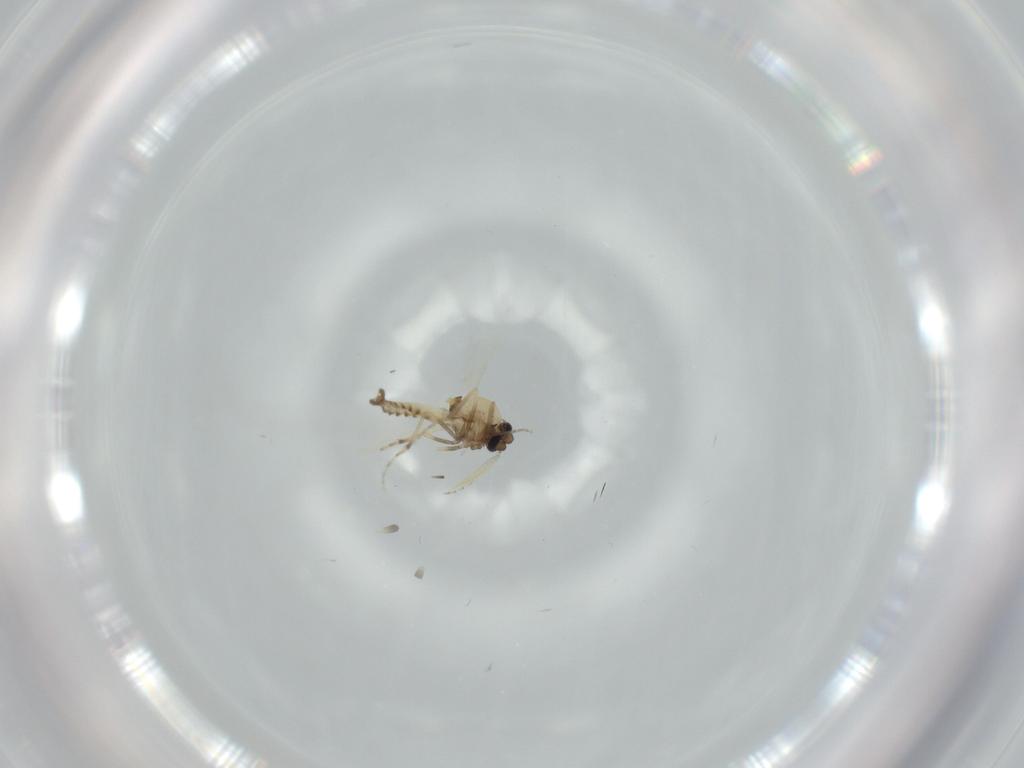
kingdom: Animalia
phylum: Arthropoda
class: Insecta
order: Diptera
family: Ceratopogonidae
